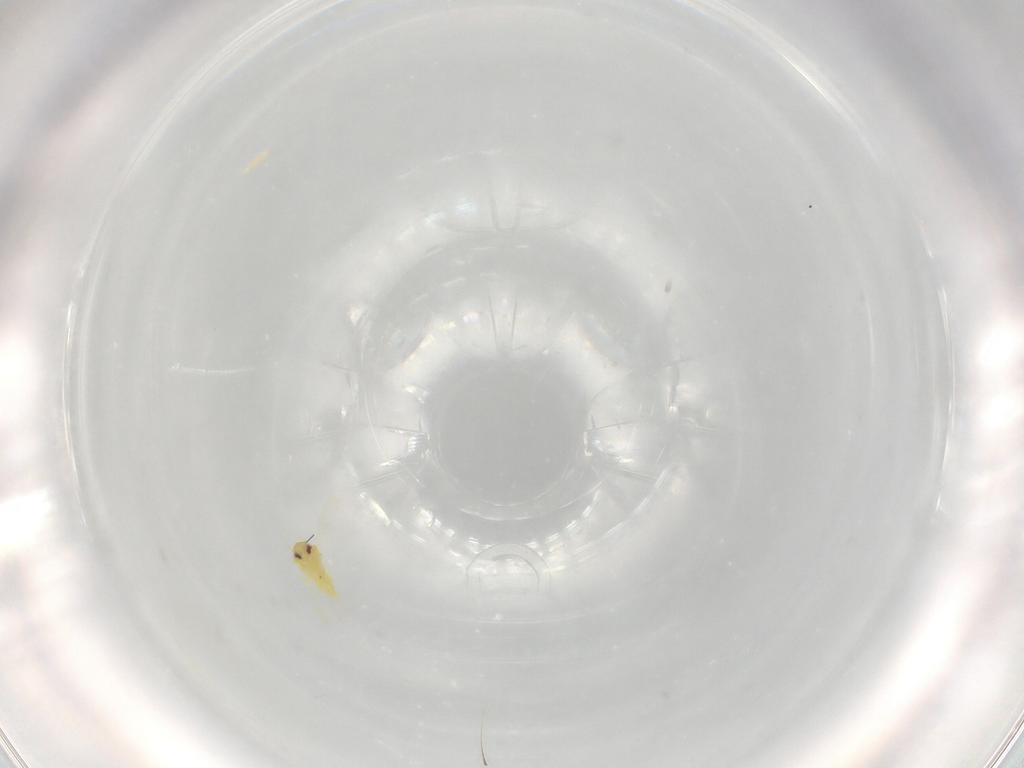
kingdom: Animalia
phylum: Arthropoda
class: Insecta
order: Hemiptera
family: Aleyrodidae
